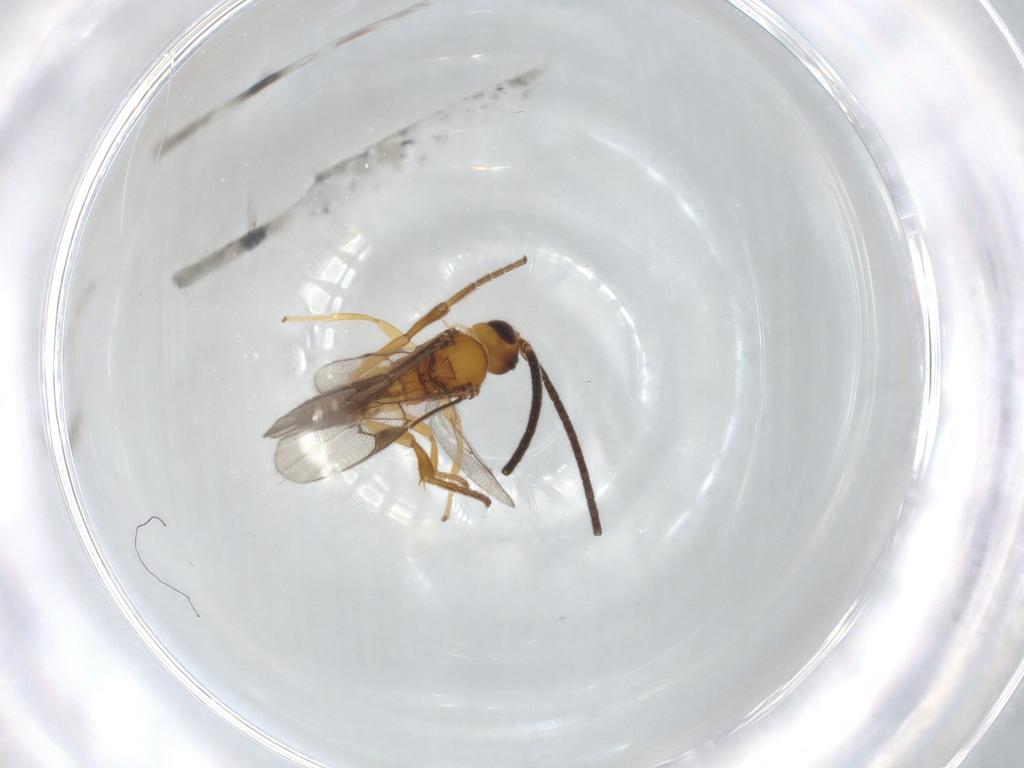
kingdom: Animalia
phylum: Arthropoda
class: Insecta
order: Hymenoptera
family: Braconidae
